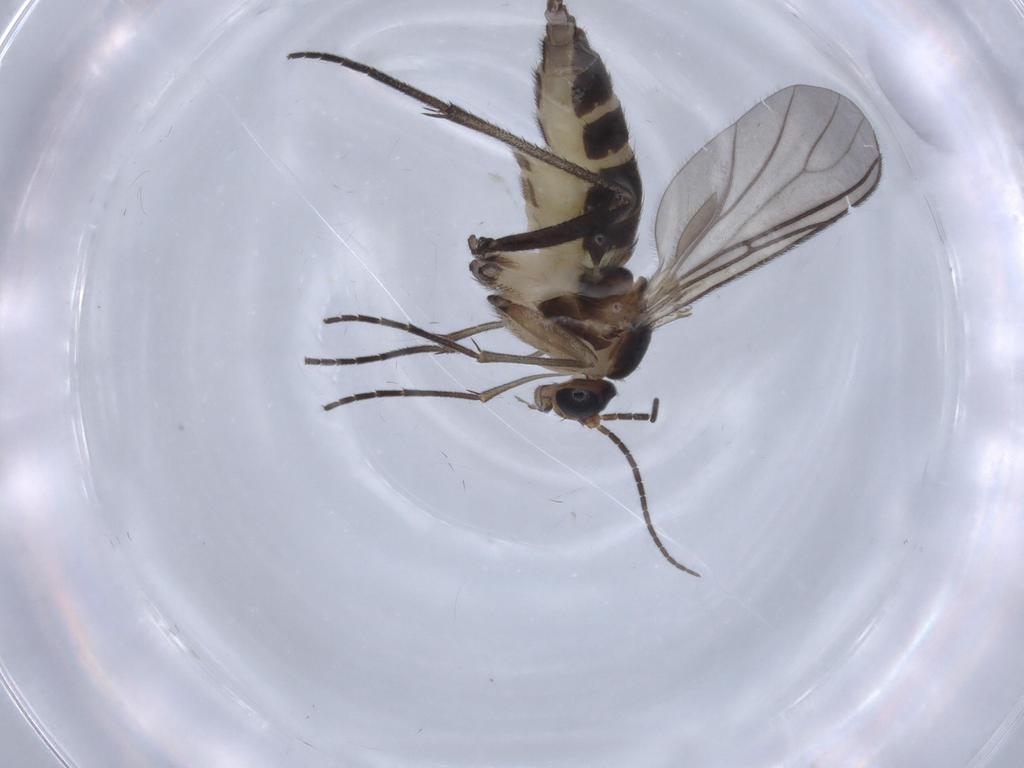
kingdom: Animalia
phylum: Arthropoda
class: Insecta
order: Diptera
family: Sciaridae
